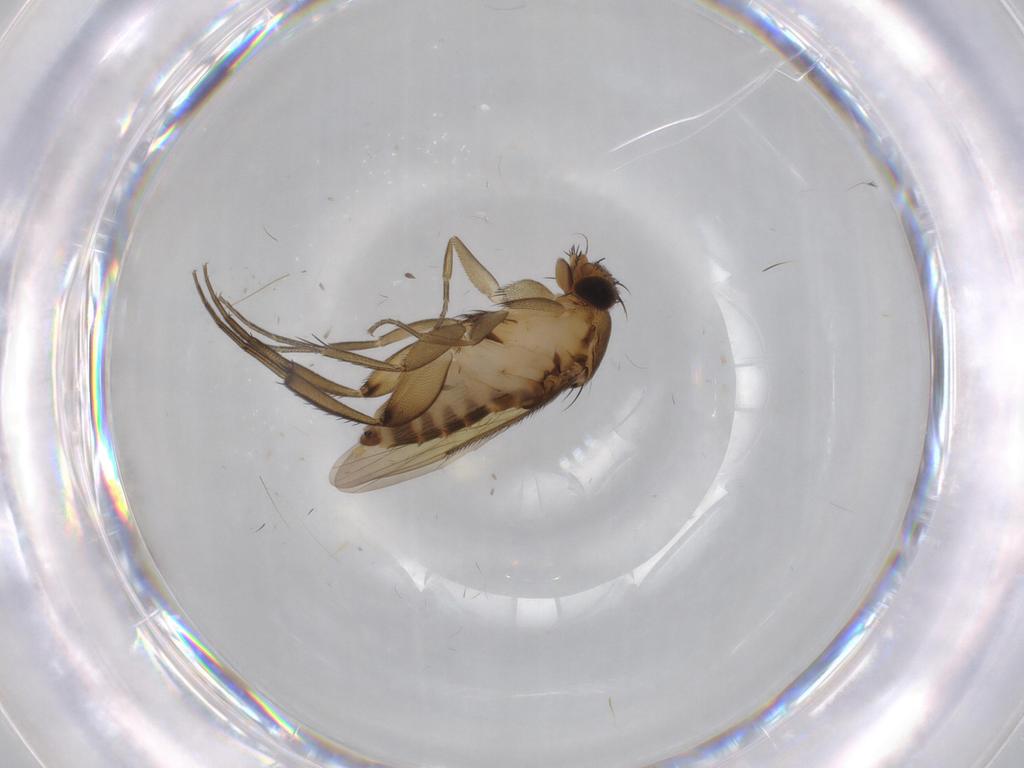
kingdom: Animalia
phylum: Arthropoda
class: Insecta
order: Diptera
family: Phoridae
